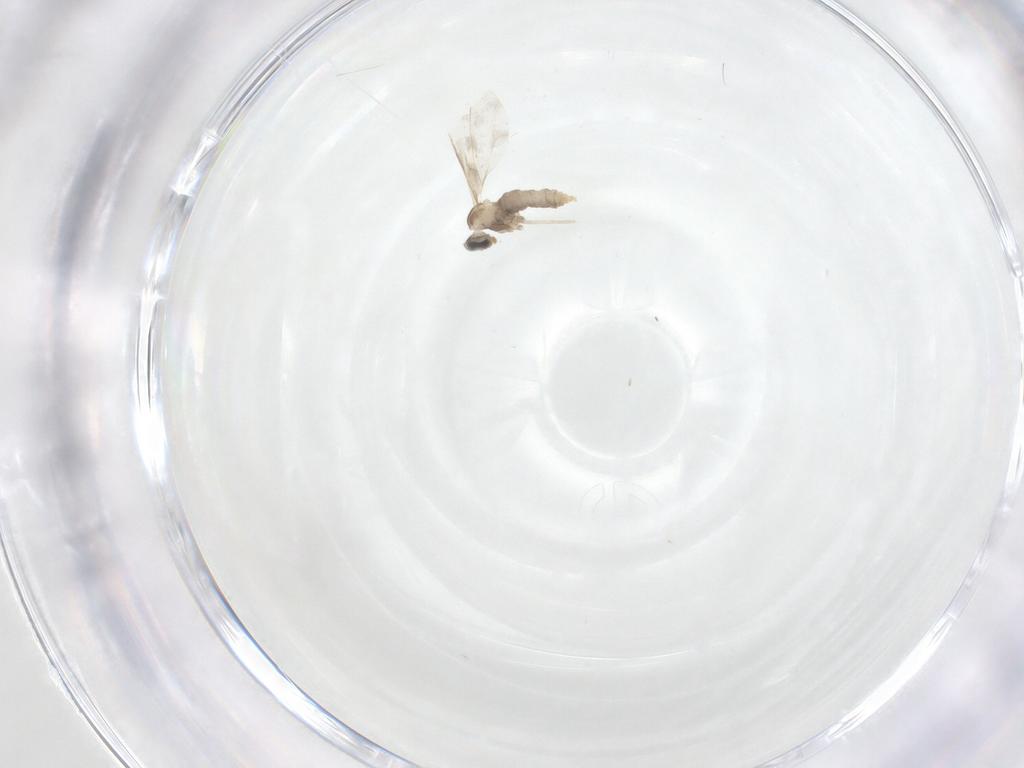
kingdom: Animalia
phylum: Arthropoda
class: Insecta
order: Diptera
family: Cecidomyiidae
